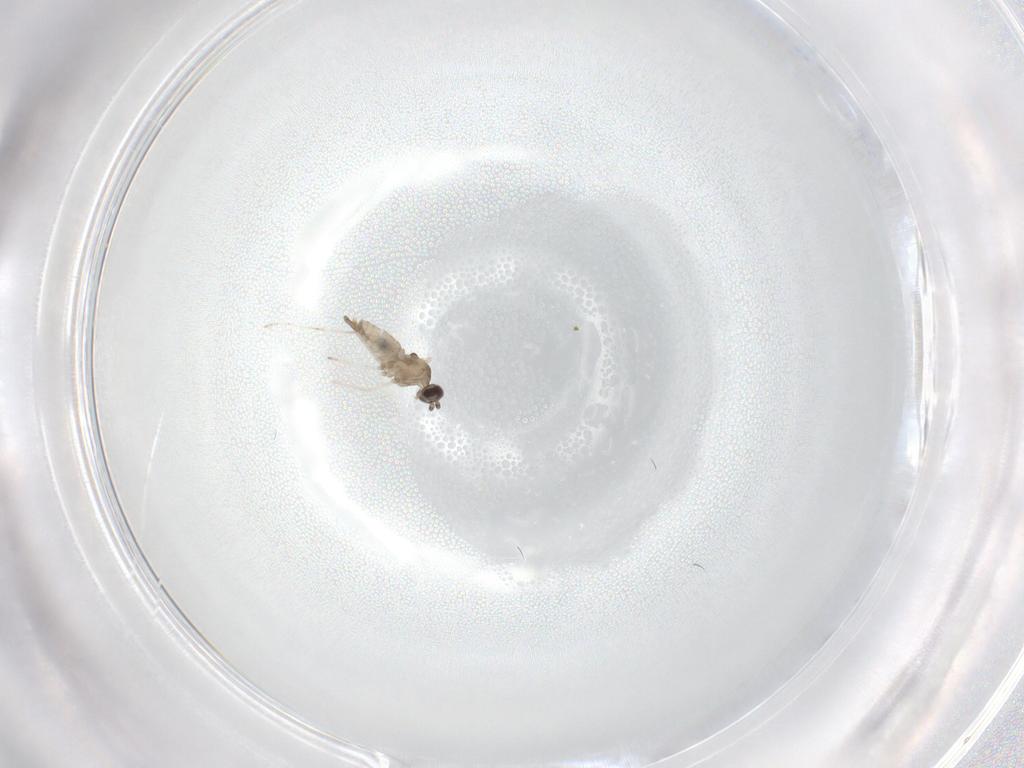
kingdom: Animalia
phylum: Arthropoda
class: Insecta
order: Diptera
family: Cecidomyiidae
